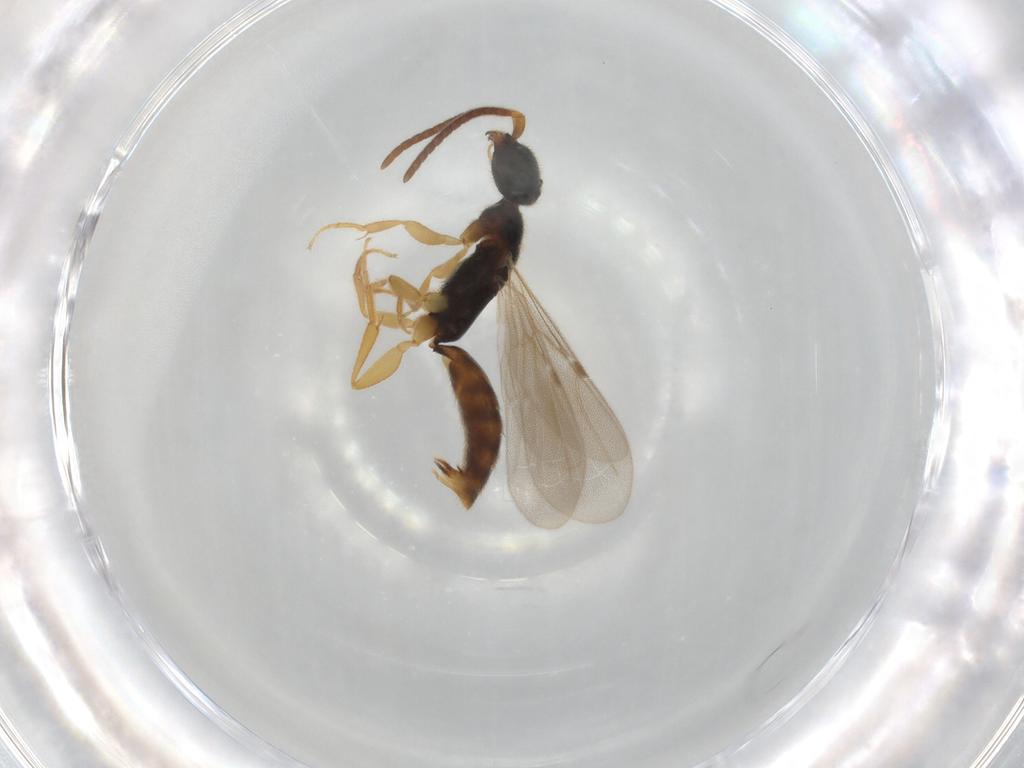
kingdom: Animalia
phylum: Arthropoda
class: Insecta
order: Hymenoptera
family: Bethylidae
